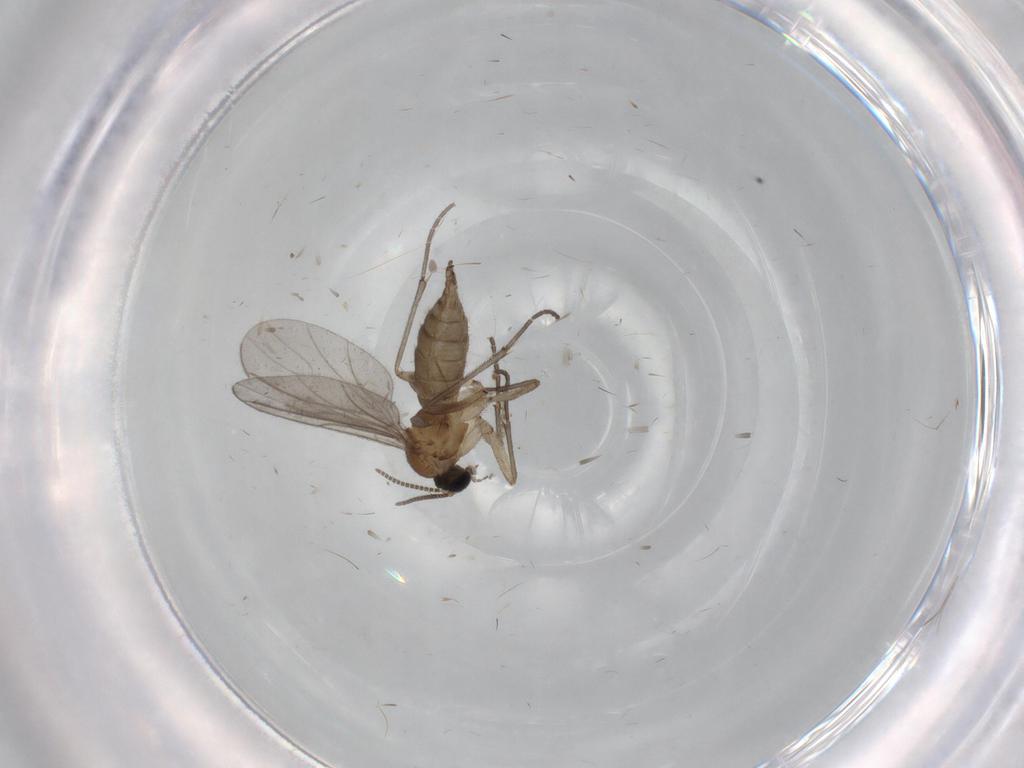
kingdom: Animalia
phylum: Arthropoda
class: Insecta
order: Diptera
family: Sciaridae
